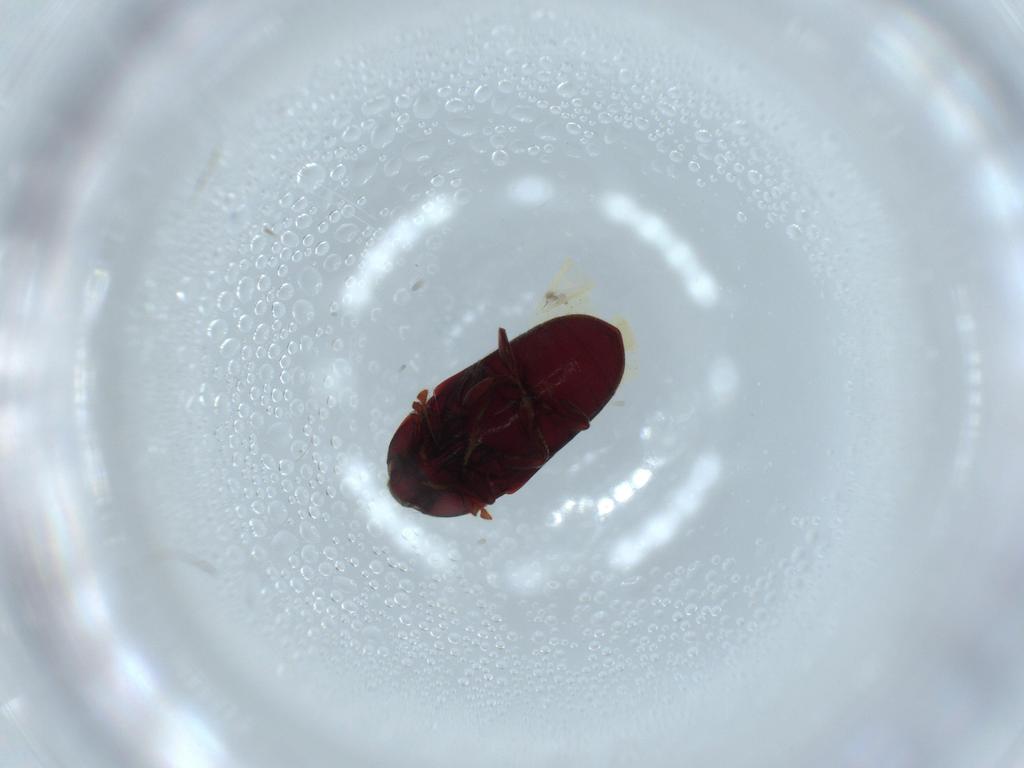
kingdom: Animalia
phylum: Arthropoda
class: Insecta
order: Coleoptera
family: Throscidae
